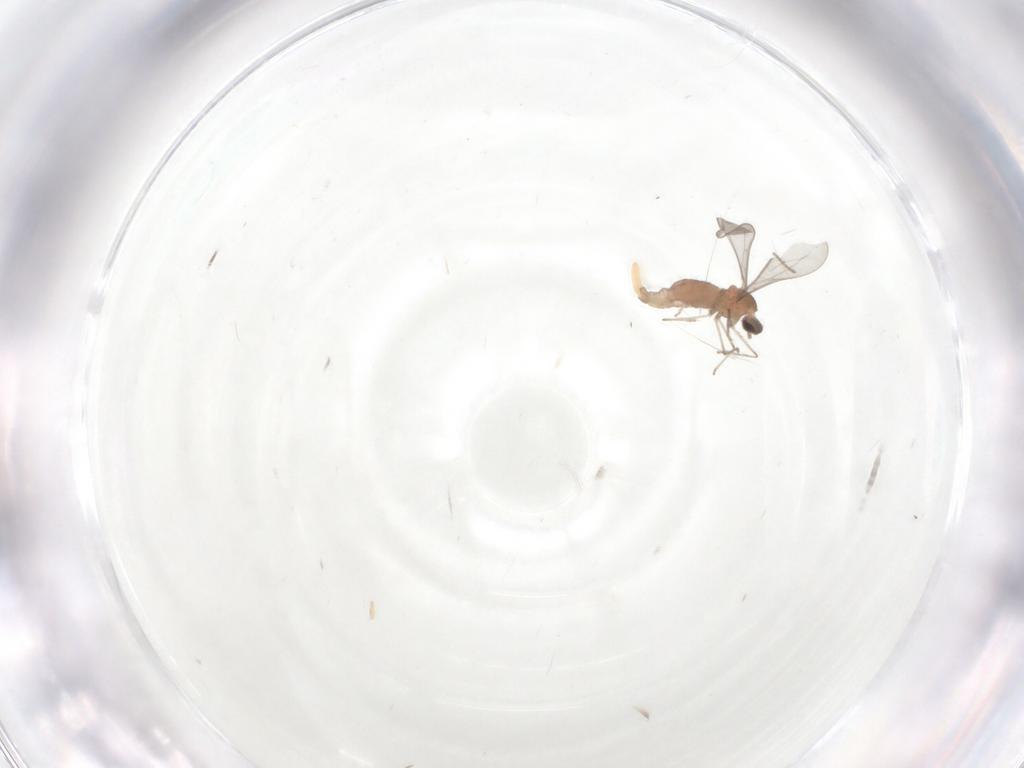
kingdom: Animalia
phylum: Arthropoda
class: Insecta
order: Diptera
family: Cecidomyiidae
